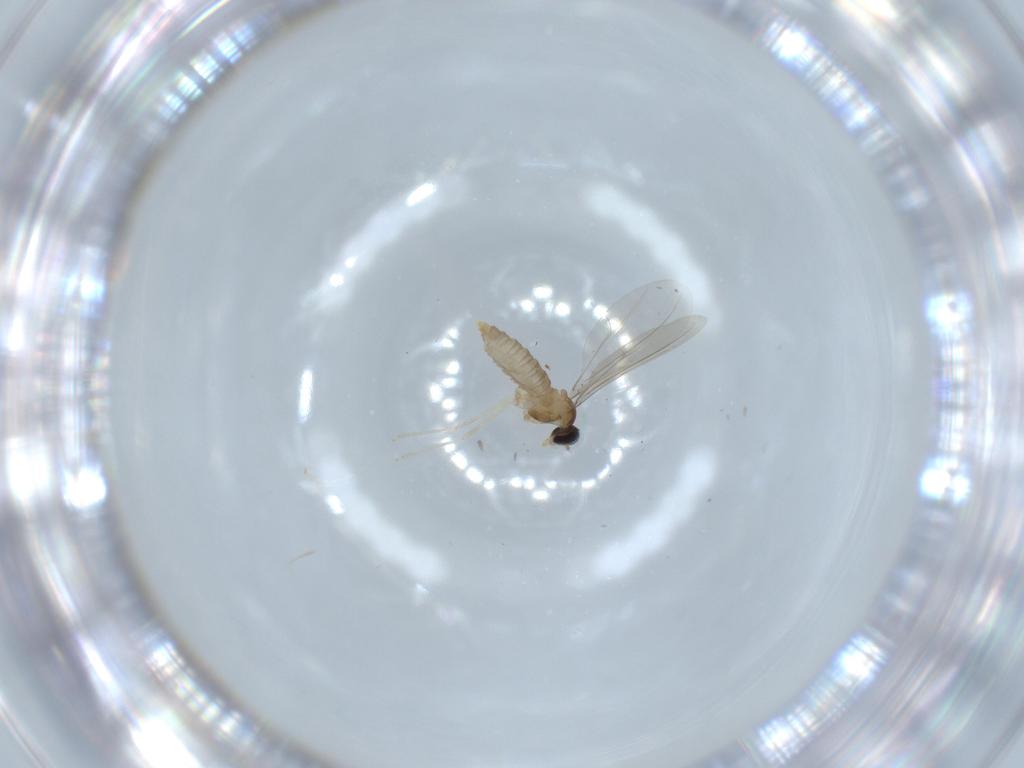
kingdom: Animalia
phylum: Arthropoda
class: Insecta
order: Diptera
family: Cecidomyiidae
